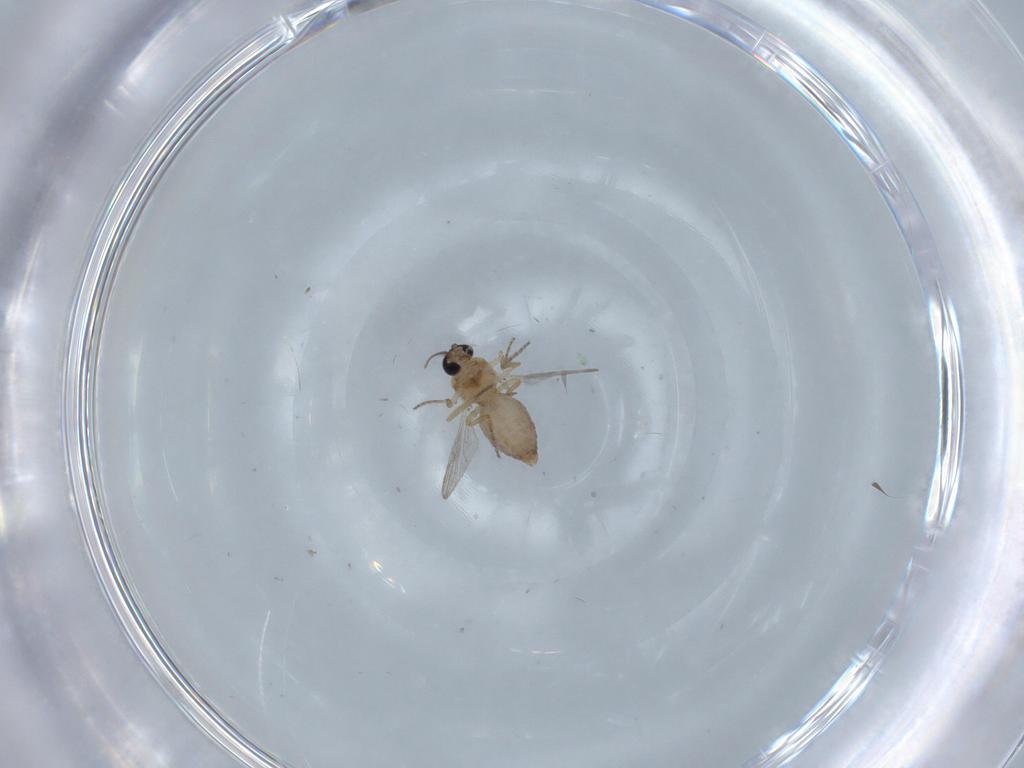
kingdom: Animalia
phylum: Arthropoda
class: Insecta
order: Diptera
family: Ceratopogonidae
